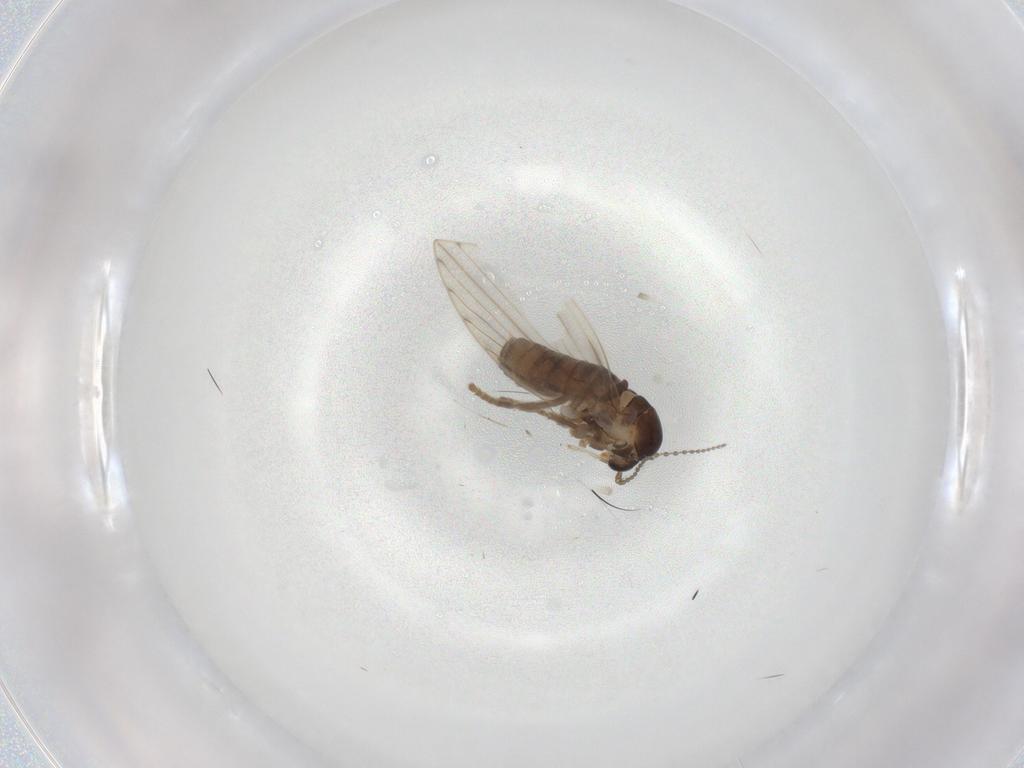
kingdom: Animalia
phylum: Arthropoda
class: Insecta
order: Diptera
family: Psychodidae
